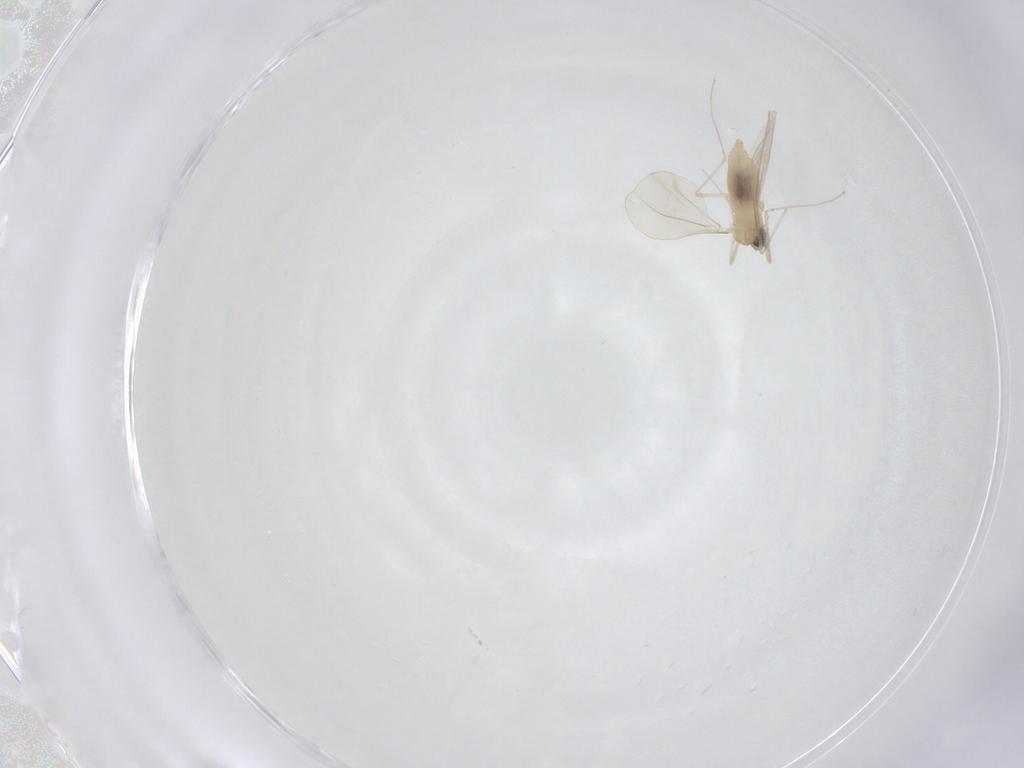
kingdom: Animalia
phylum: Arthropoda
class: Insecta
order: Diptera
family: Cecidomyiidae
